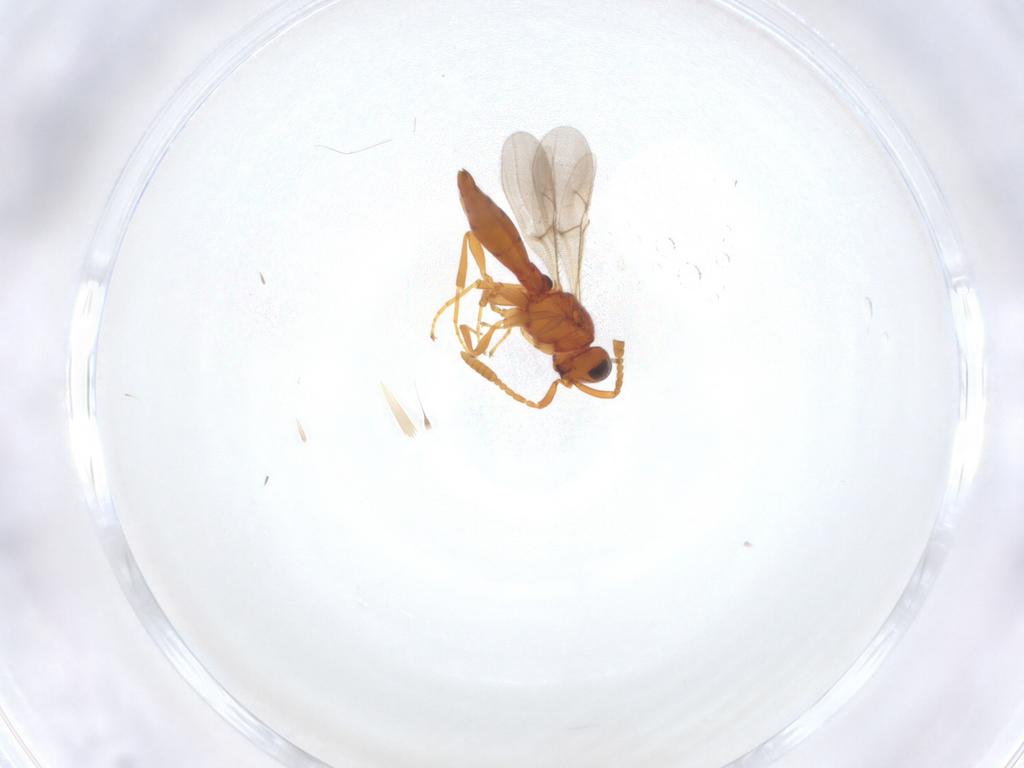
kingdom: Animalia
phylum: Arthropoda
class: Insecta
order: Hymenoptera
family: Scelionidae
